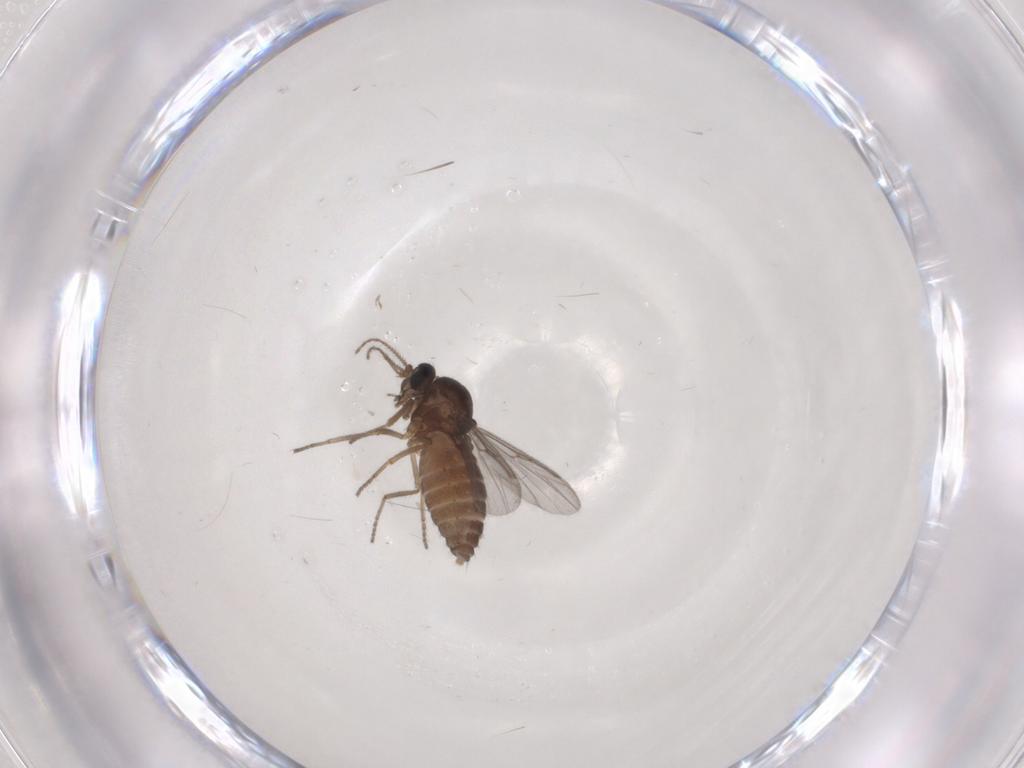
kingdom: Animalia
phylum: Arthropoda
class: Insecta
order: Diptera
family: Ceratopogonidae
